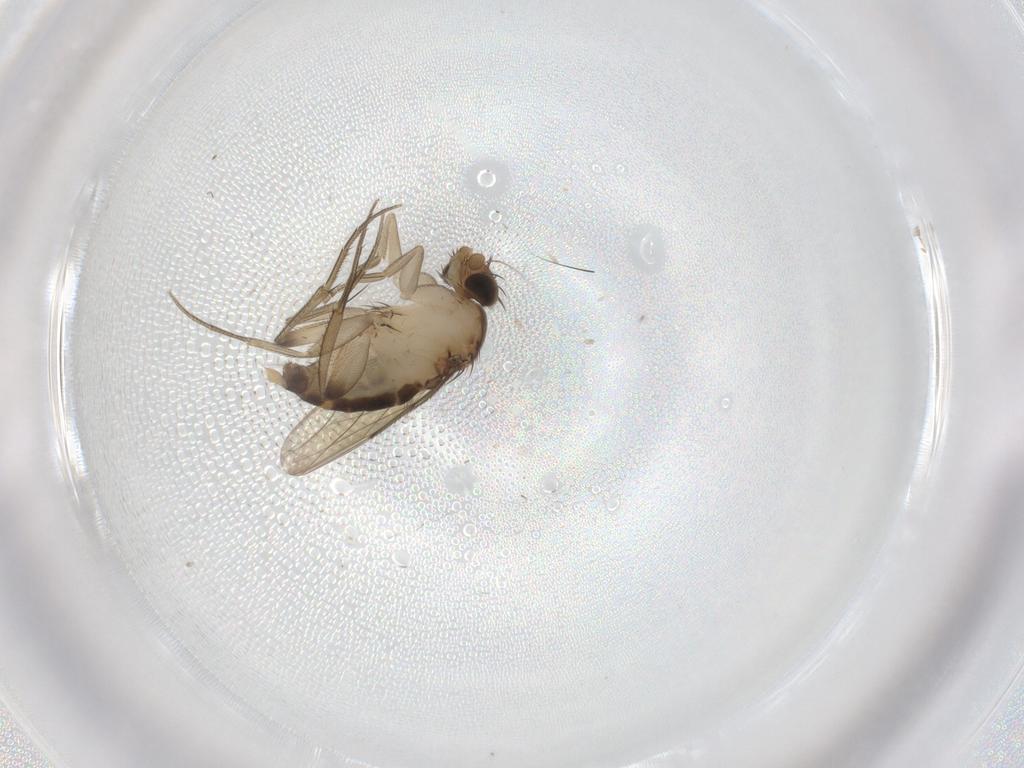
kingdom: Animalia
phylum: Arthropoda
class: Insecta
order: Diptera
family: Phoridae
